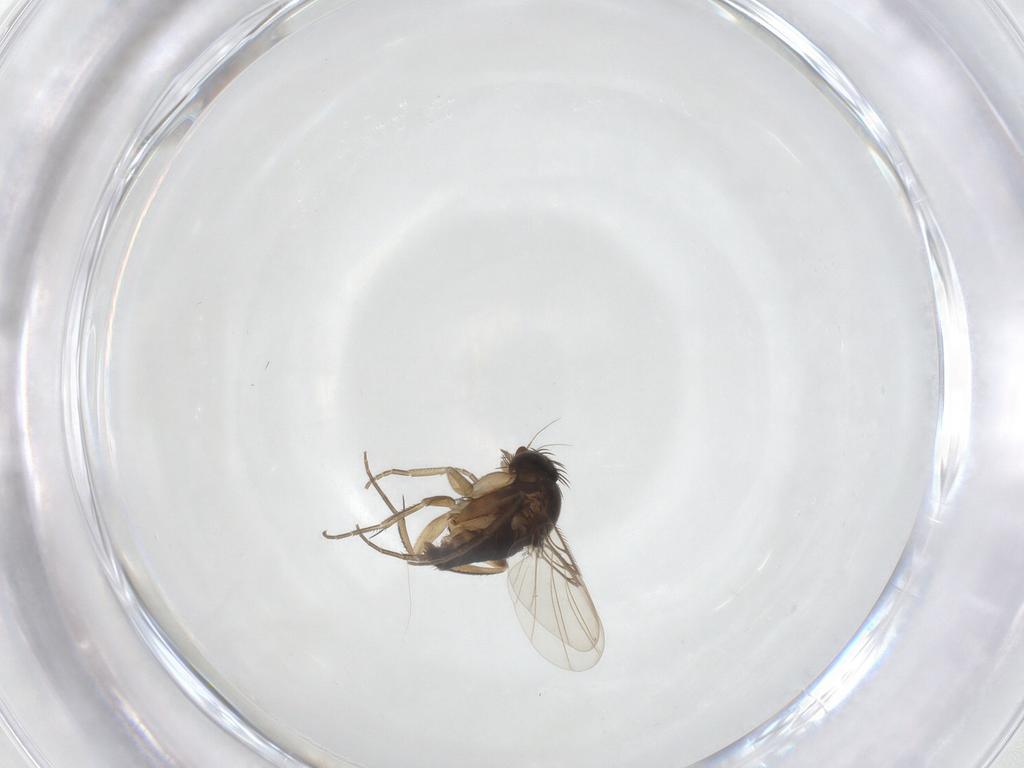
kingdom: Animalia
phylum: Arthropoda
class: Insecta
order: Diptera
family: Phoridae
